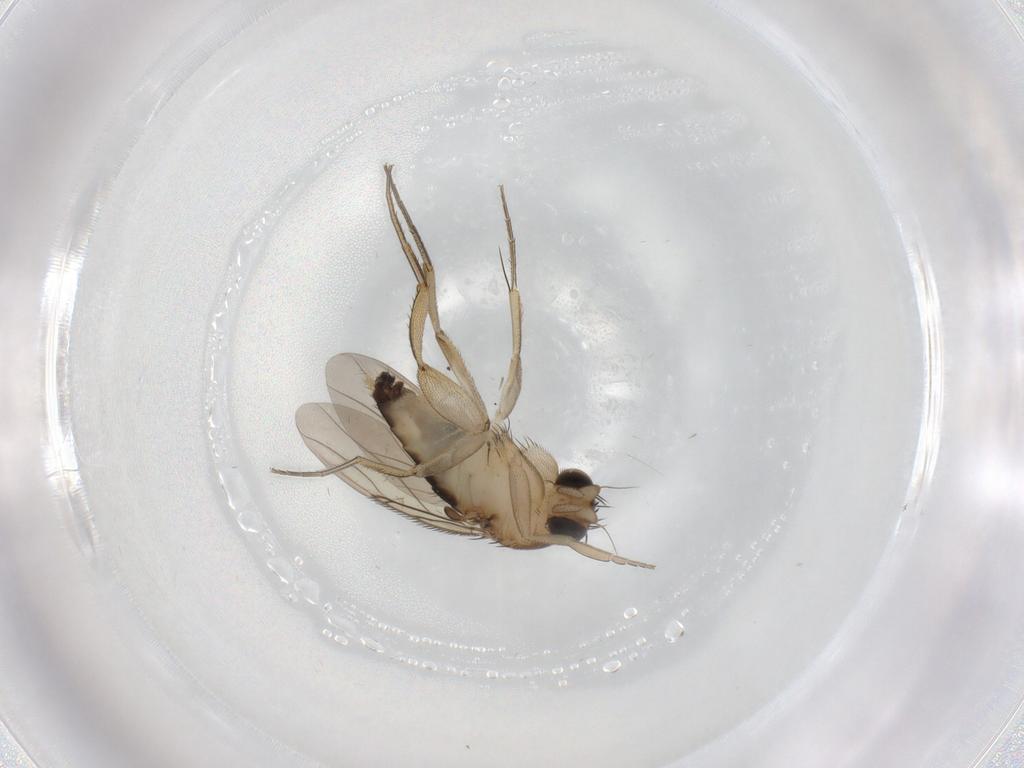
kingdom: Animalia
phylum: Arthropoda
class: Insecta
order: Diptera
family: Phoridae
